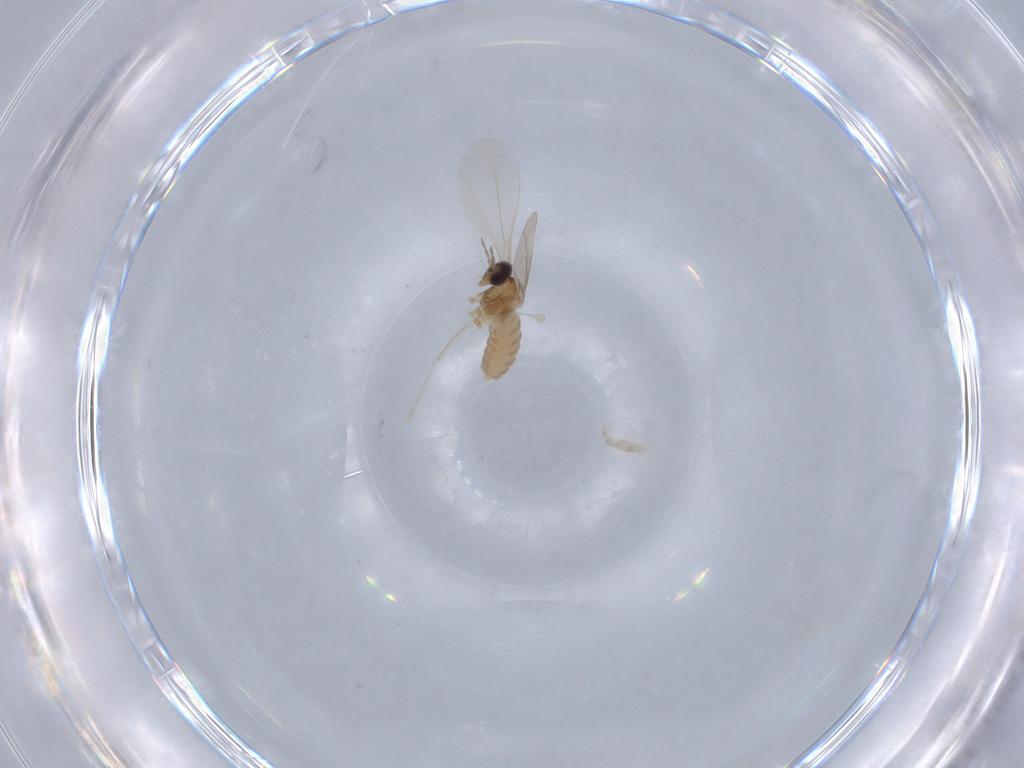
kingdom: Animalia
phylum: Arthropoda
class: Insecta
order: Diptera
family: Cecidomyiidae
